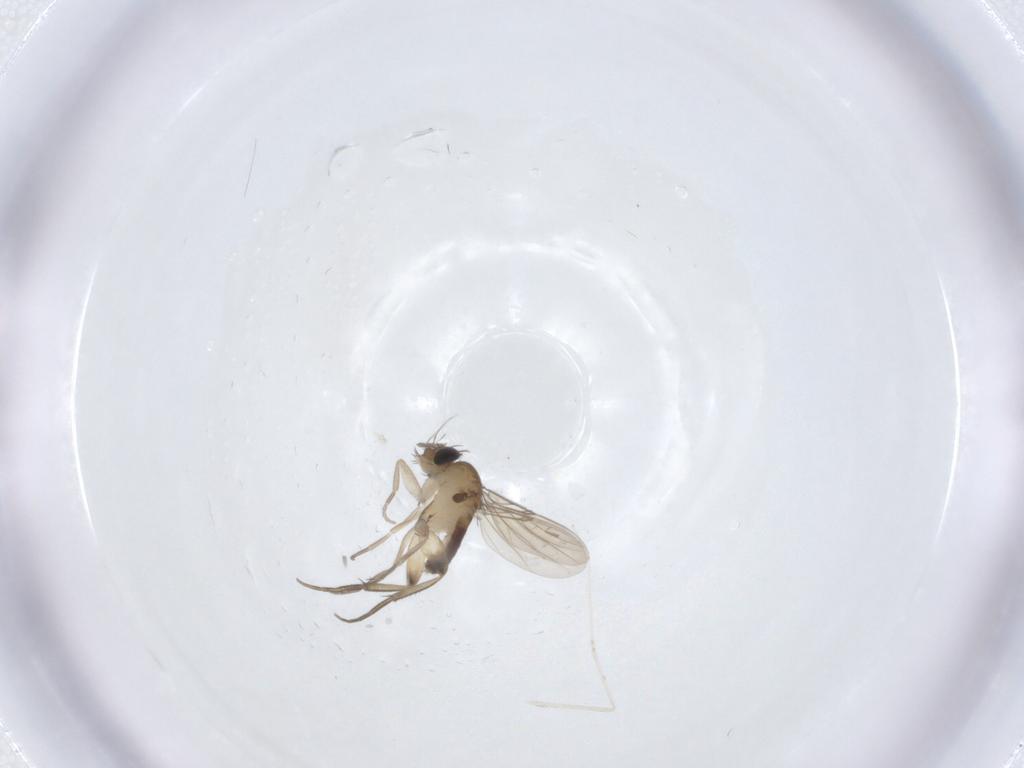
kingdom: Animalia
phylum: Arthropoda
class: Insecta
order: Diptera
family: Phoridae
